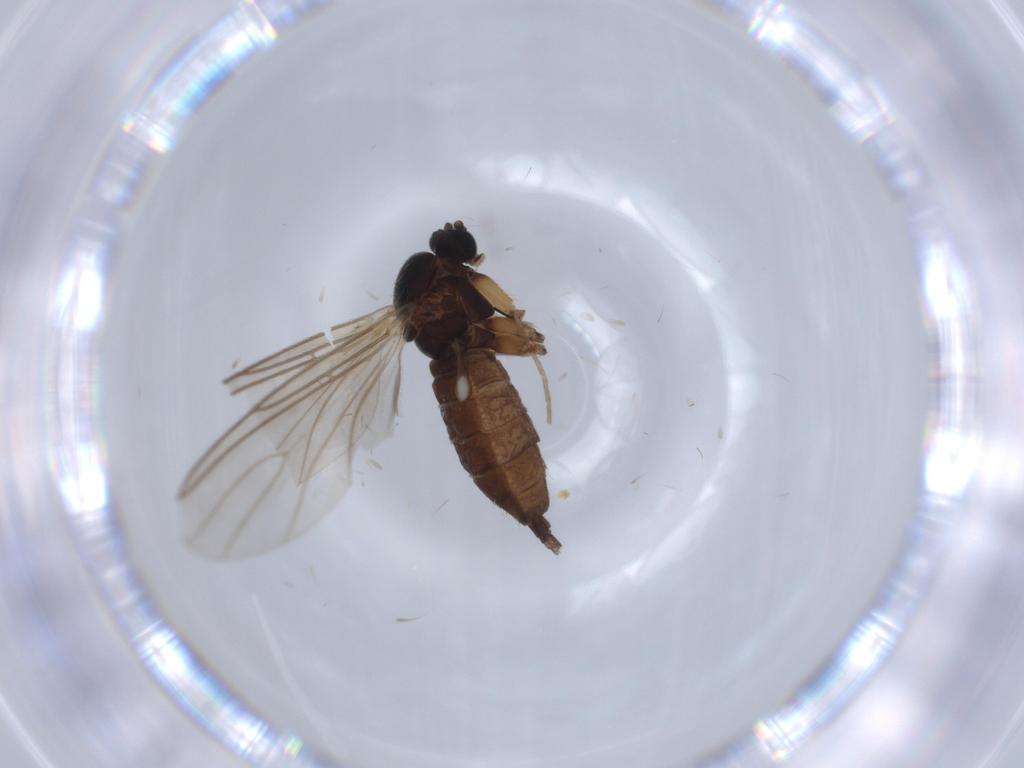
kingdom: Animalia
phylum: Arthropoda
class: Insecta
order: Diptera
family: Sciaridae
